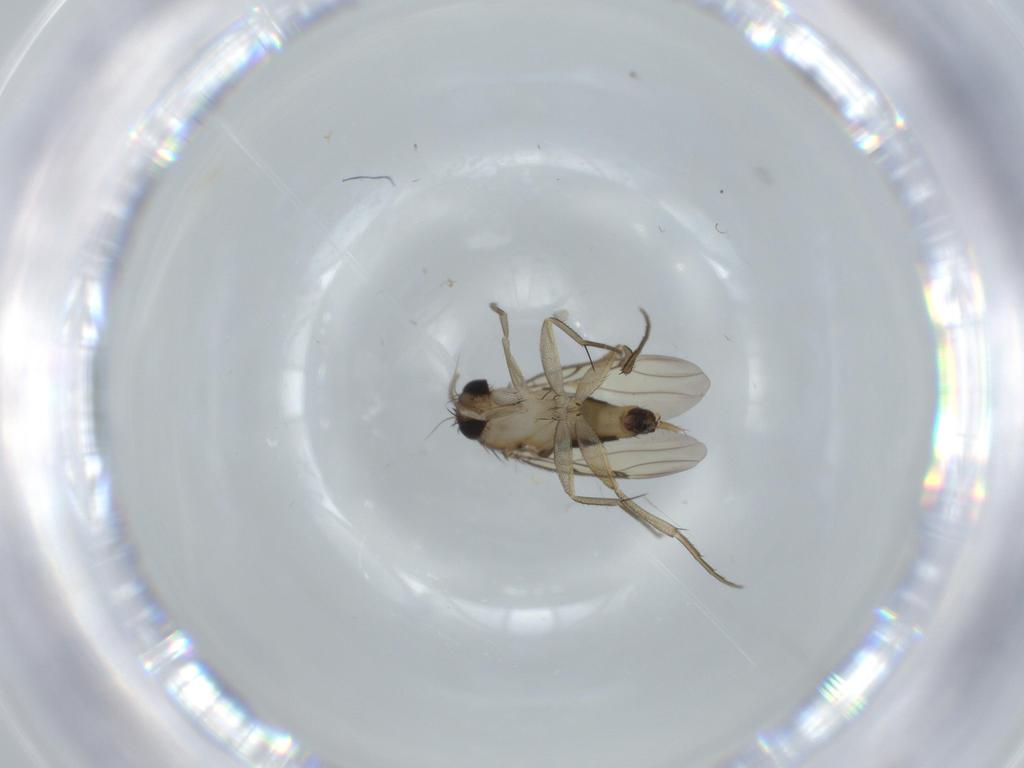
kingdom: Animalia
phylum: Arthropoda
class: Insecta
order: Diptera
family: Phoridae
